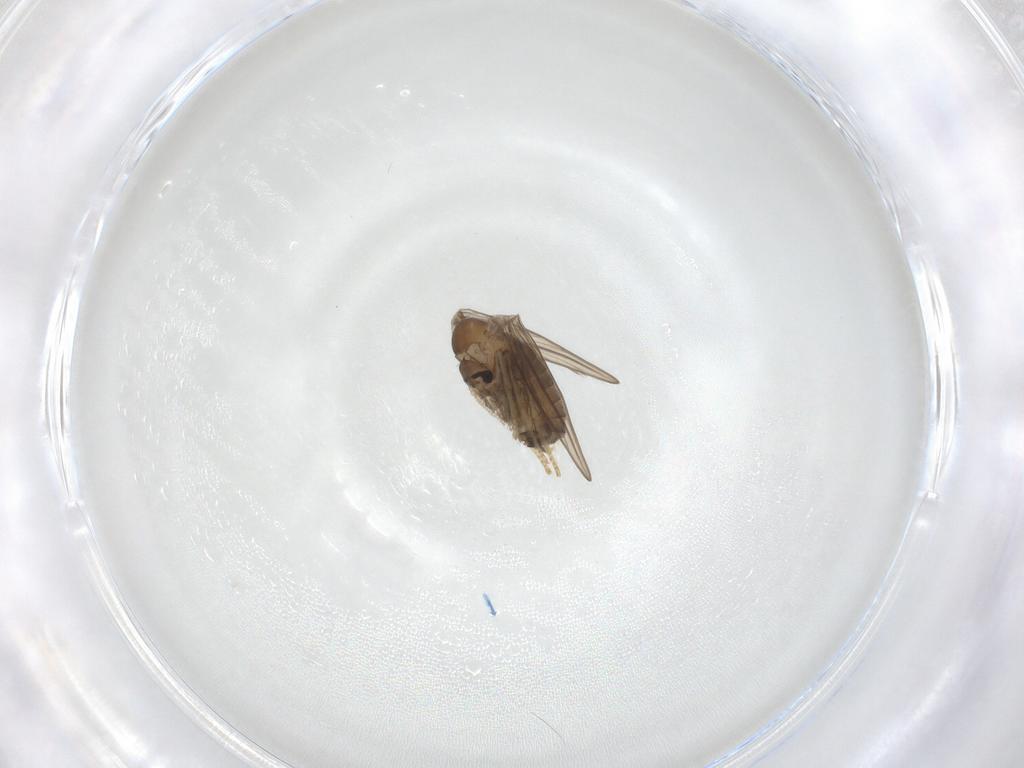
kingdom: Animalia
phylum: Arthropoda
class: Insecta
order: Diptera
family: Psychodidae
